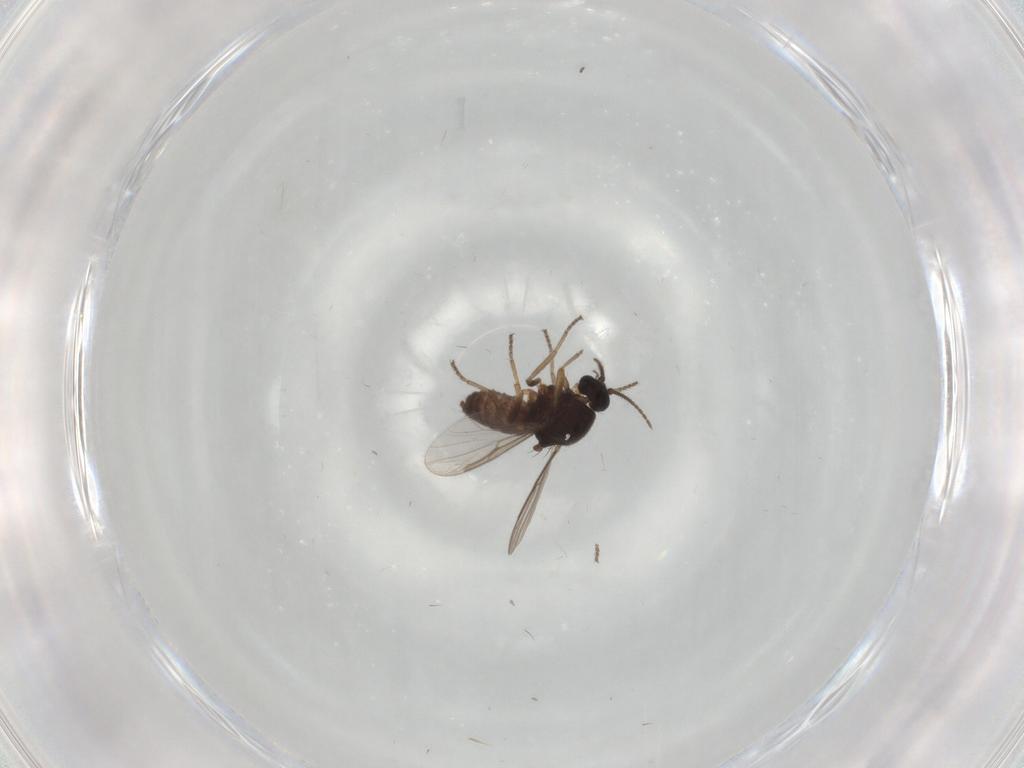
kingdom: Animalia
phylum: Arthropoda
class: Insecta
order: Diptera
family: Ceratopogonidae
